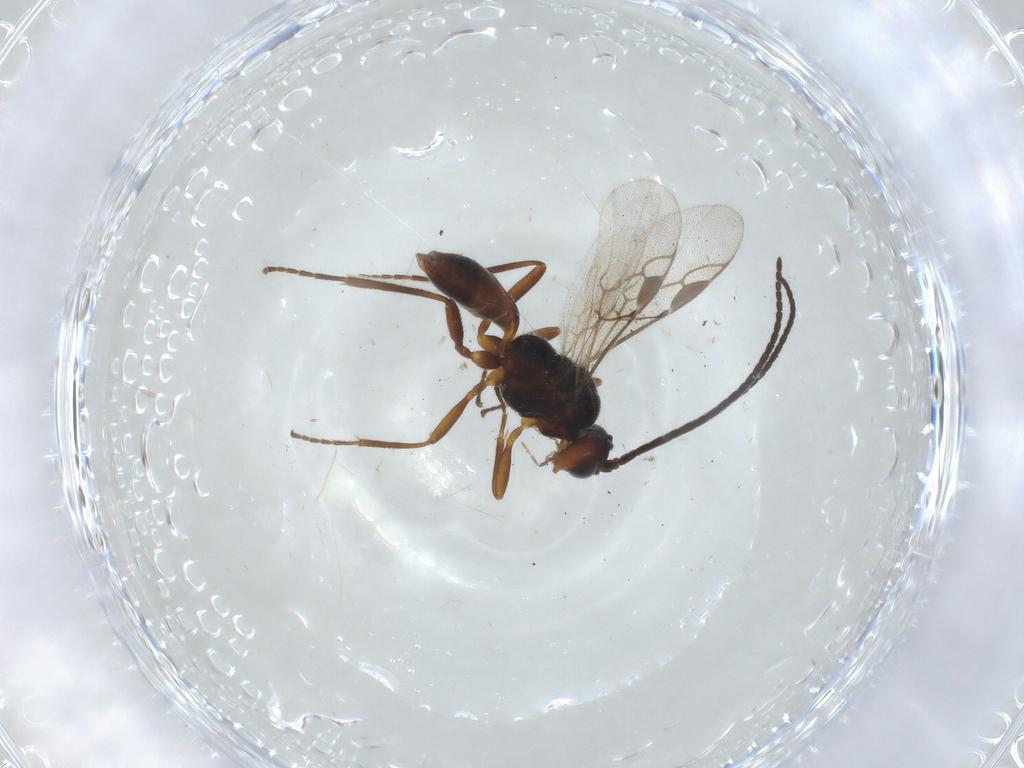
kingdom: Animalia
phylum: Arthropoda
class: Insecta
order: Hymenoptera
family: Braconidae
